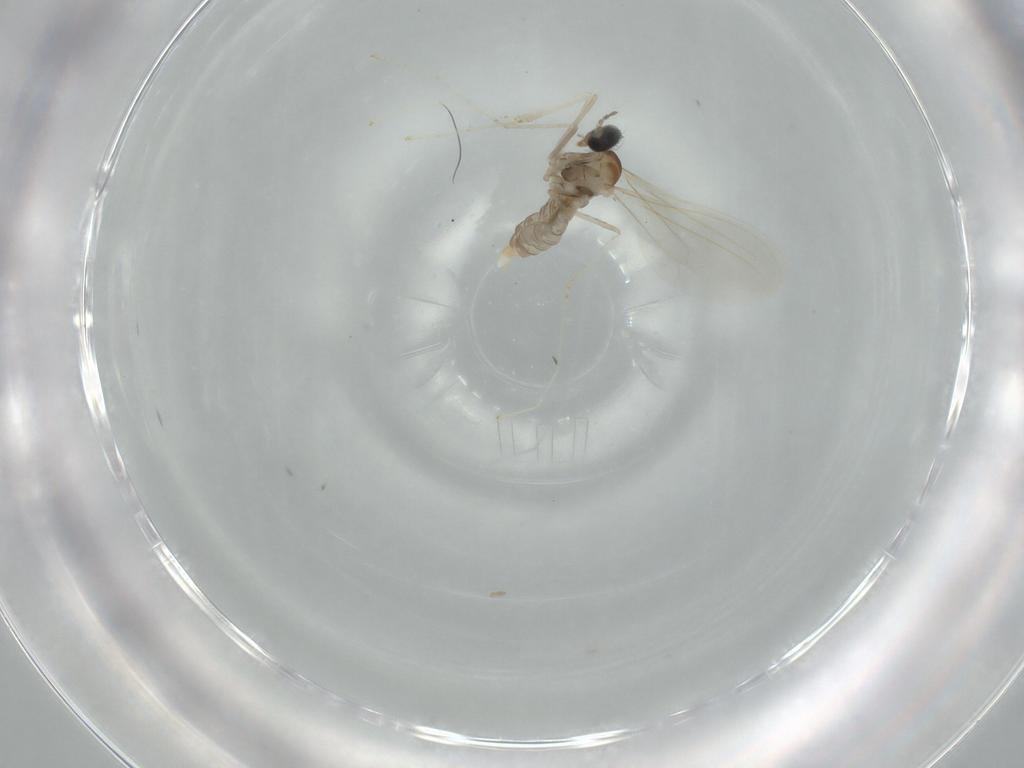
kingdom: Animalia
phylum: Arthropoda
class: Insecta
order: Diptera
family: Cecidomyiidae
